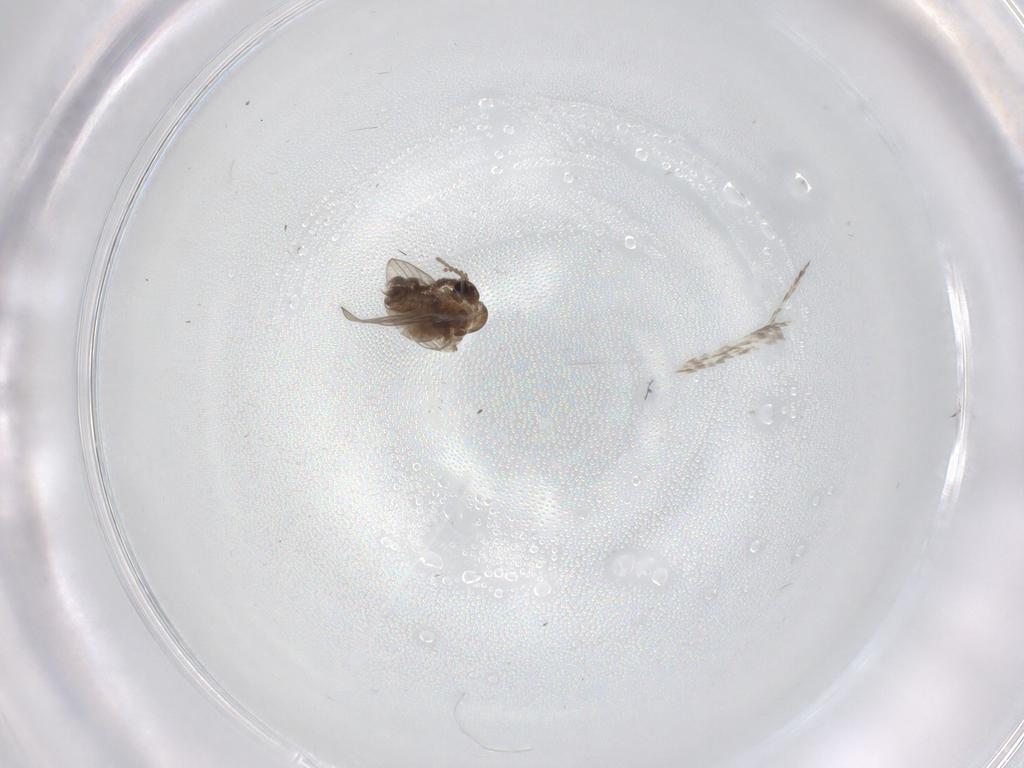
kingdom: Animalia
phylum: Arthropoda
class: Insecta
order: Diptera
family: Psychodidae
